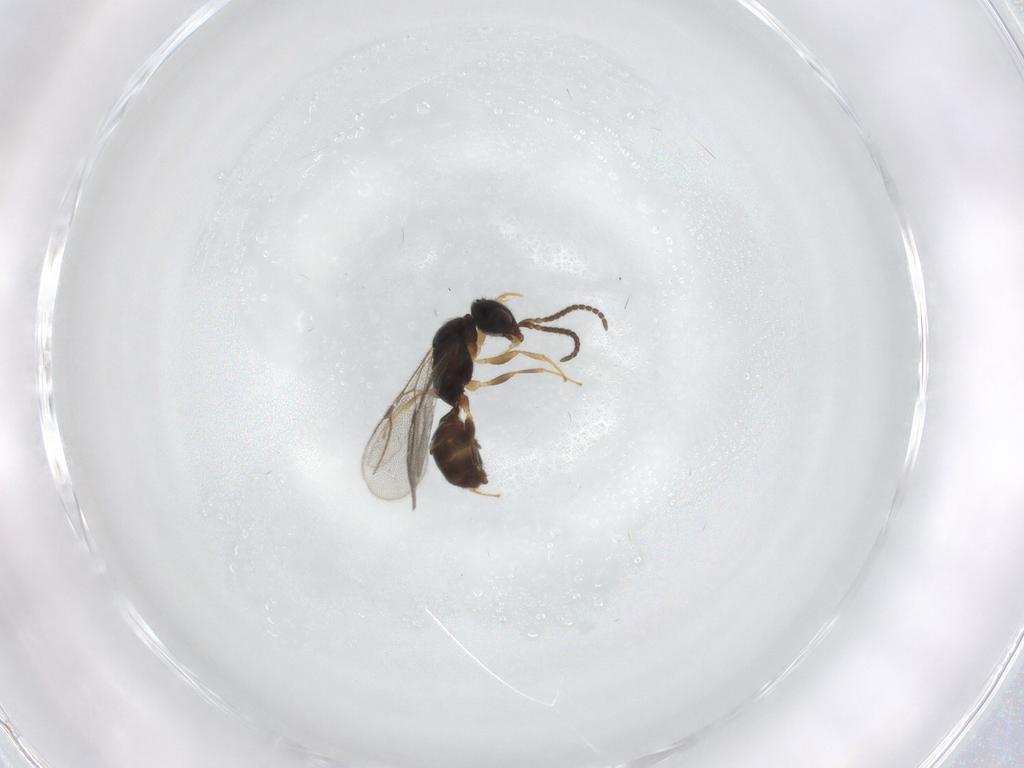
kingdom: Animalia
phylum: Arthropoda
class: Insecta
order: Hymenoptera
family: Bethylidae
